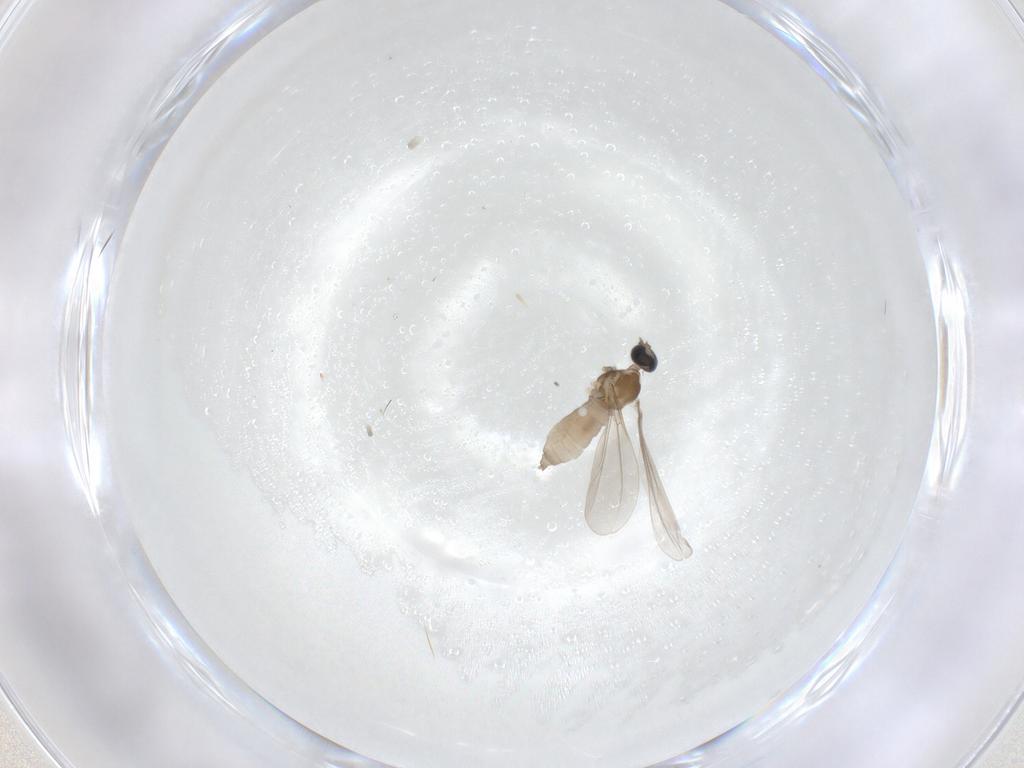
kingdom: Animalia
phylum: Arthropoda
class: Insecta
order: Diptera
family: Cecidomyiidae
